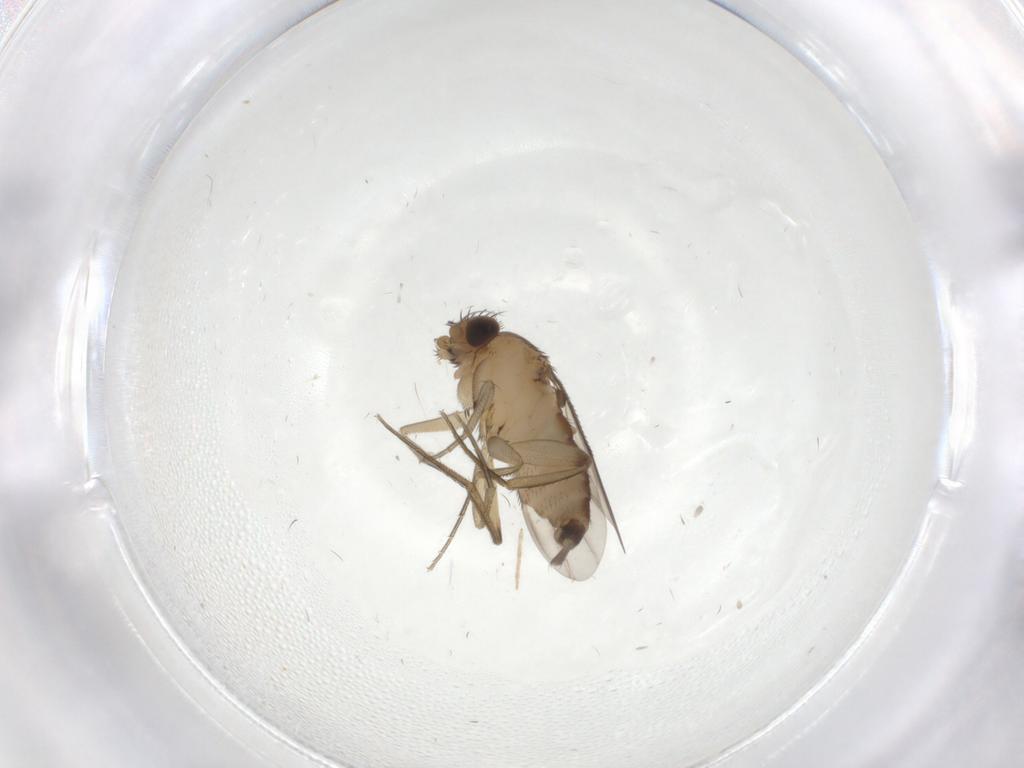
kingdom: Animalia
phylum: Arthropoda
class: Insecta
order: Diptera
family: Phoridae
